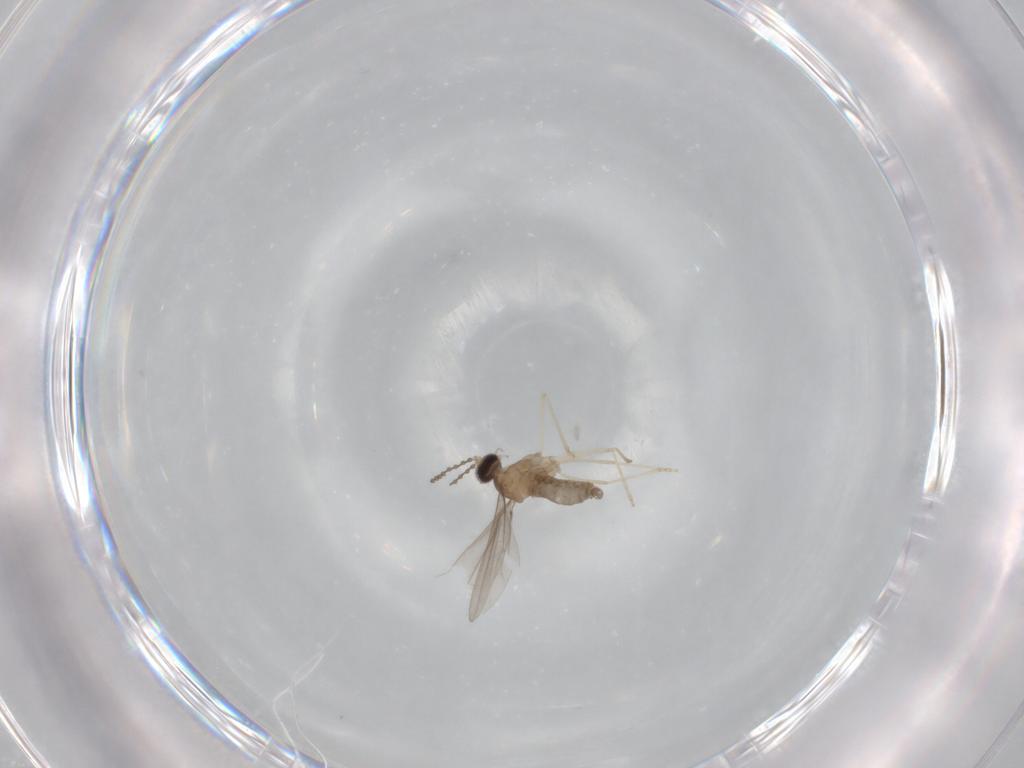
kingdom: Animalia
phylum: Arthropoda
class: Insecta
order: Diptera
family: Cecidomyiidae
